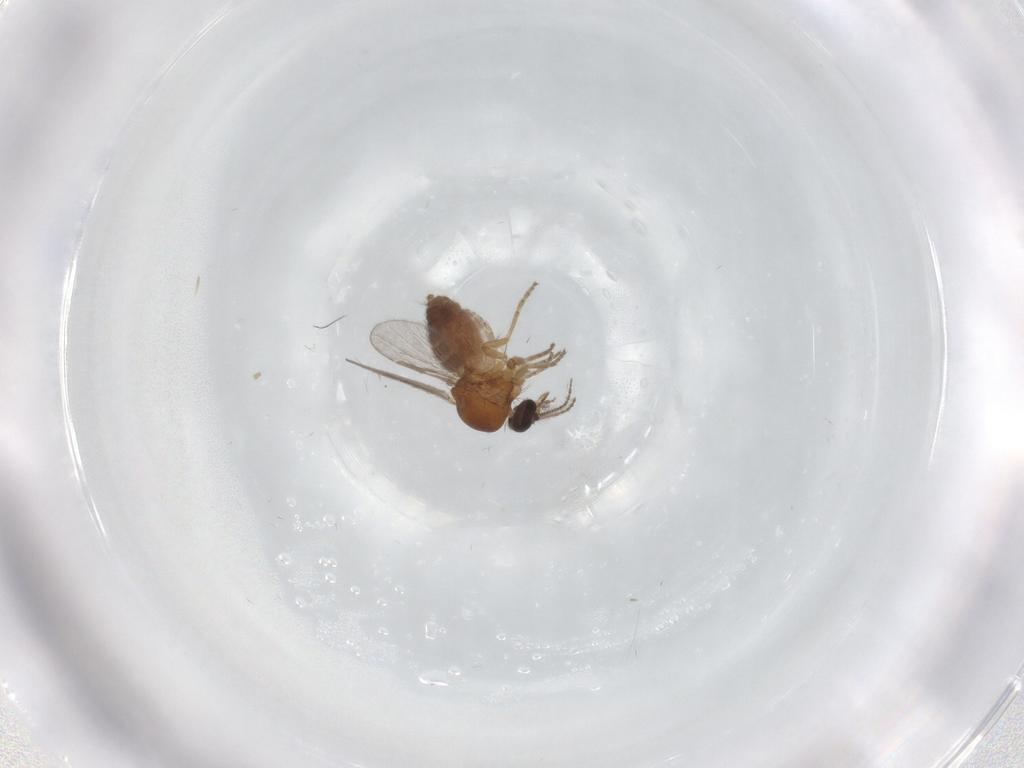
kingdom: Animalia
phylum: Arthropoda
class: Insecta
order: Diptera
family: Ceratopogonidae
